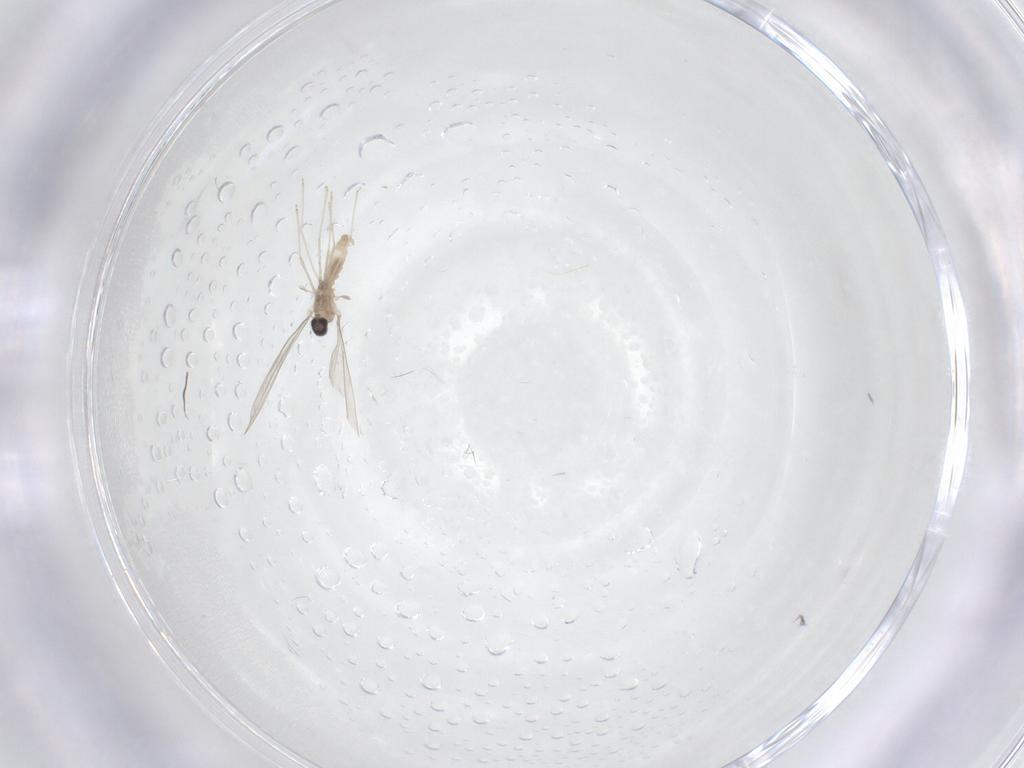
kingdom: Animalia
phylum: Arthropoda
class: Insecta
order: Diptera
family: Cecidomyiidae
